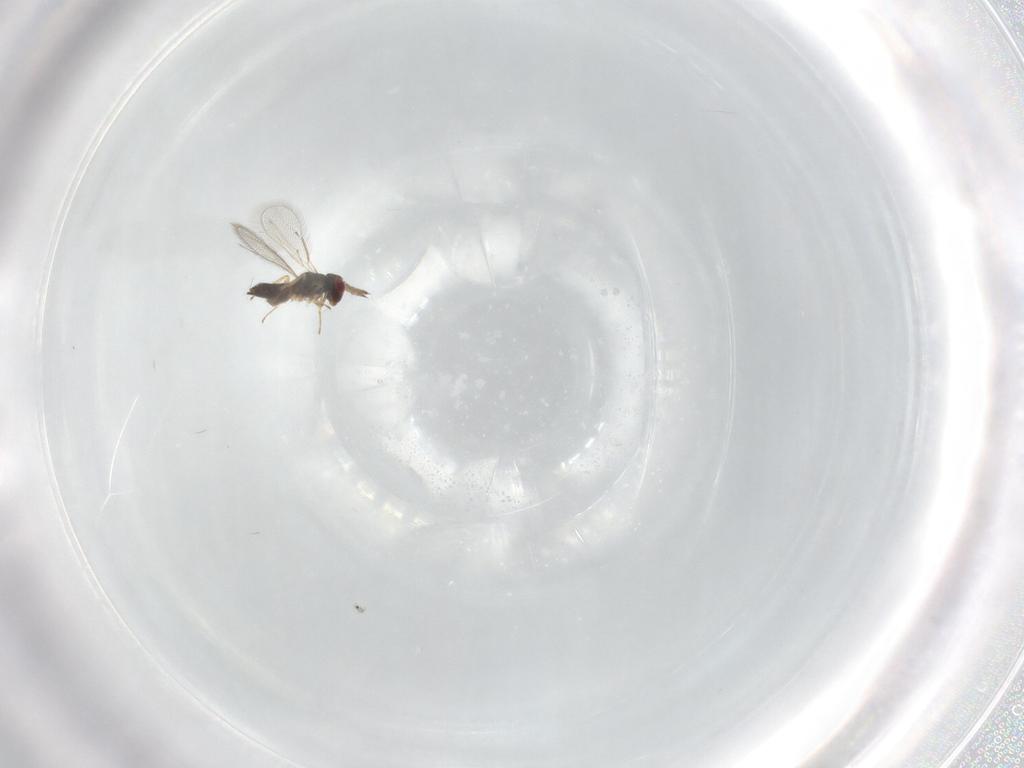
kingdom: Animalia
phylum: Arthropoda
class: Insecta
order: Hymenoptera
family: Eulophidae
